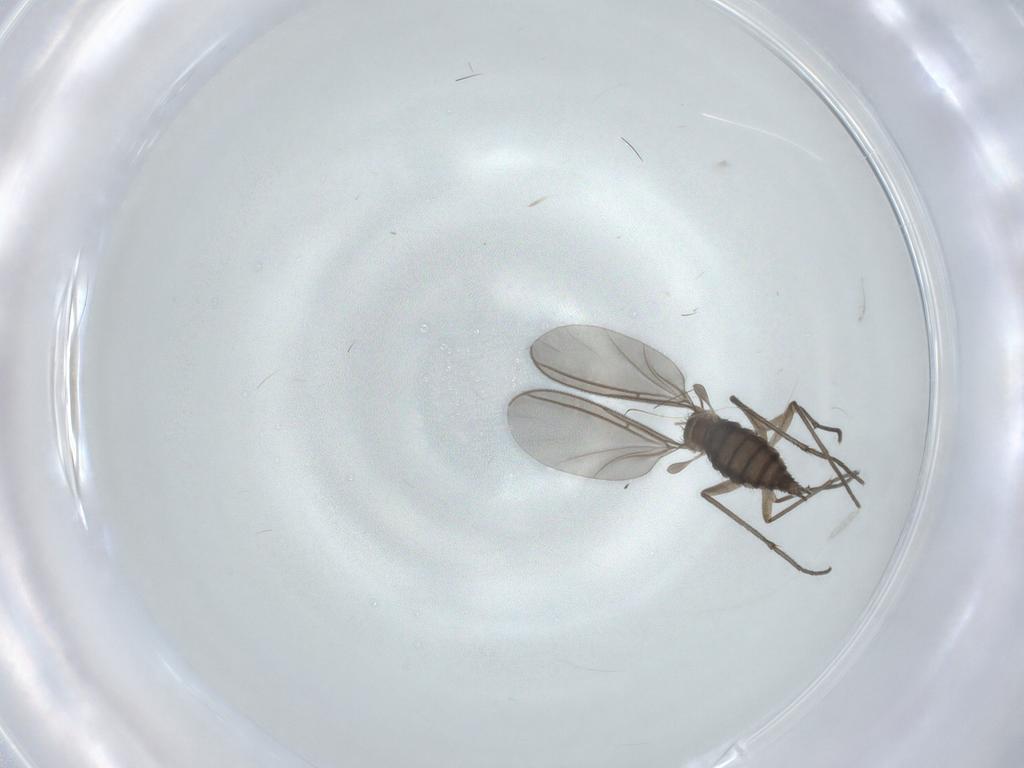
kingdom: Animalia
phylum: Arthropoda
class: Insecta
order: Diptera
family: Sciaridae
